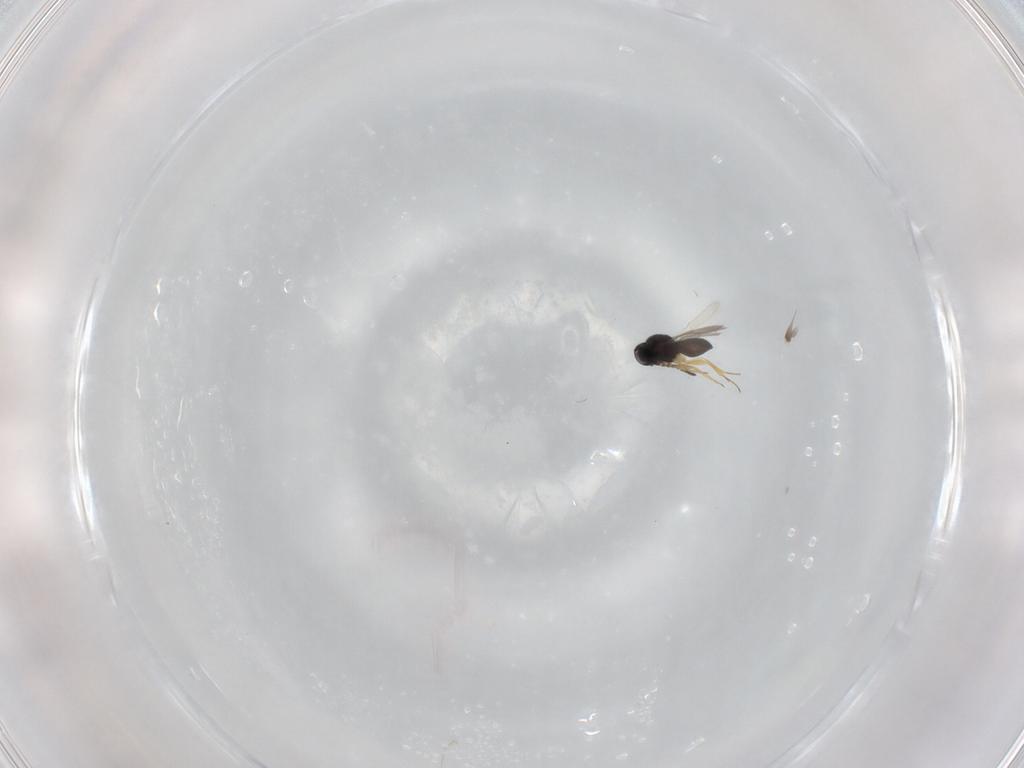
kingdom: Animalia
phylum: Arthropoda
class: Insecta
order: Hymenoptera
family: Scelionidae
